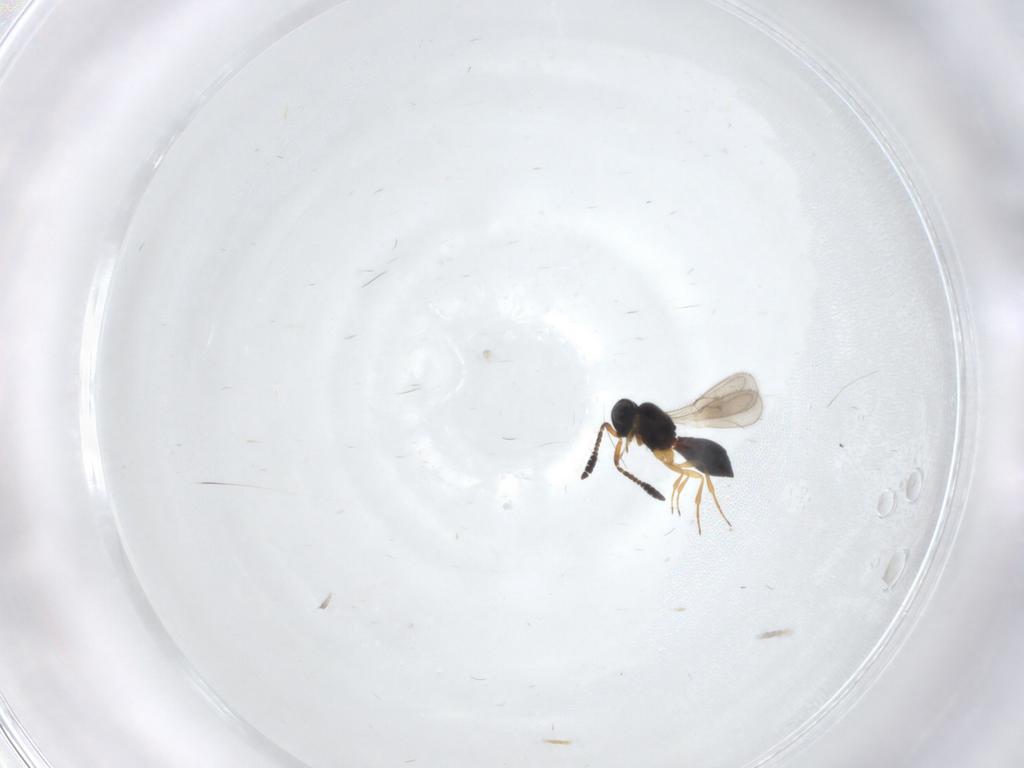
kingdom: Animalia
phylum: Arthropoda
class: Insecta
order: Hymenoptera
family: Scelionidae
